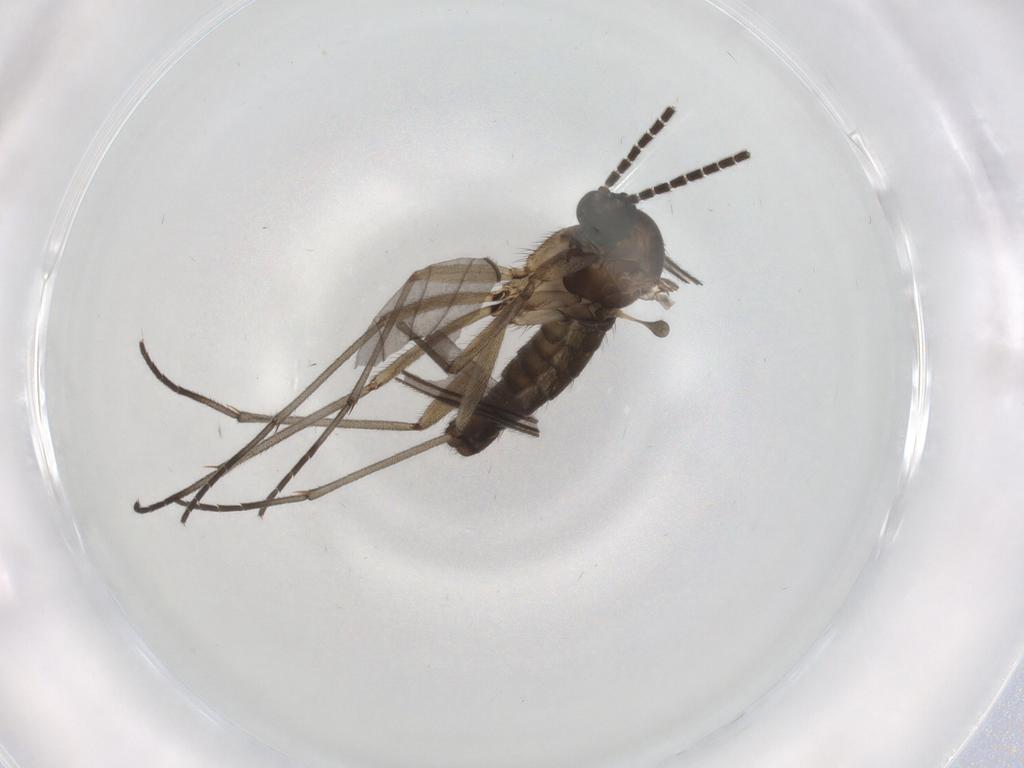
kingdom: Animalia
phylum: Arthropoda
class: Insecta
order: Diptera
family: Sciaridae
